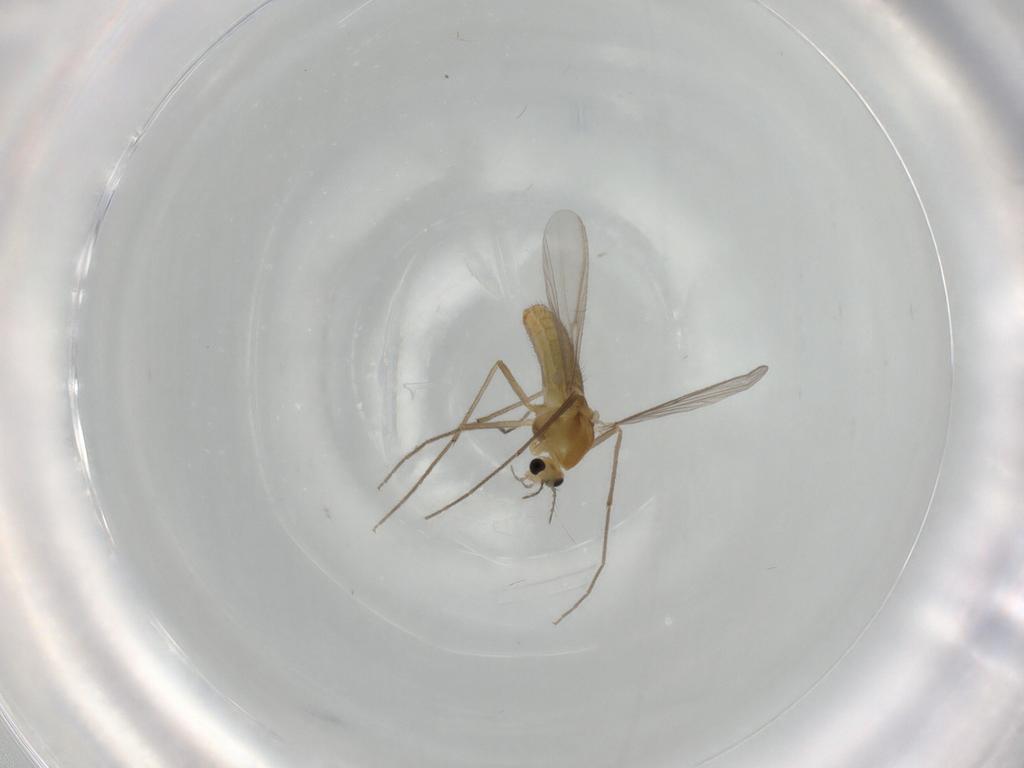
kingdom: Animalia
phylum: Arthropoda
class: Insecta
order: Diptera
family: Chironomidae
